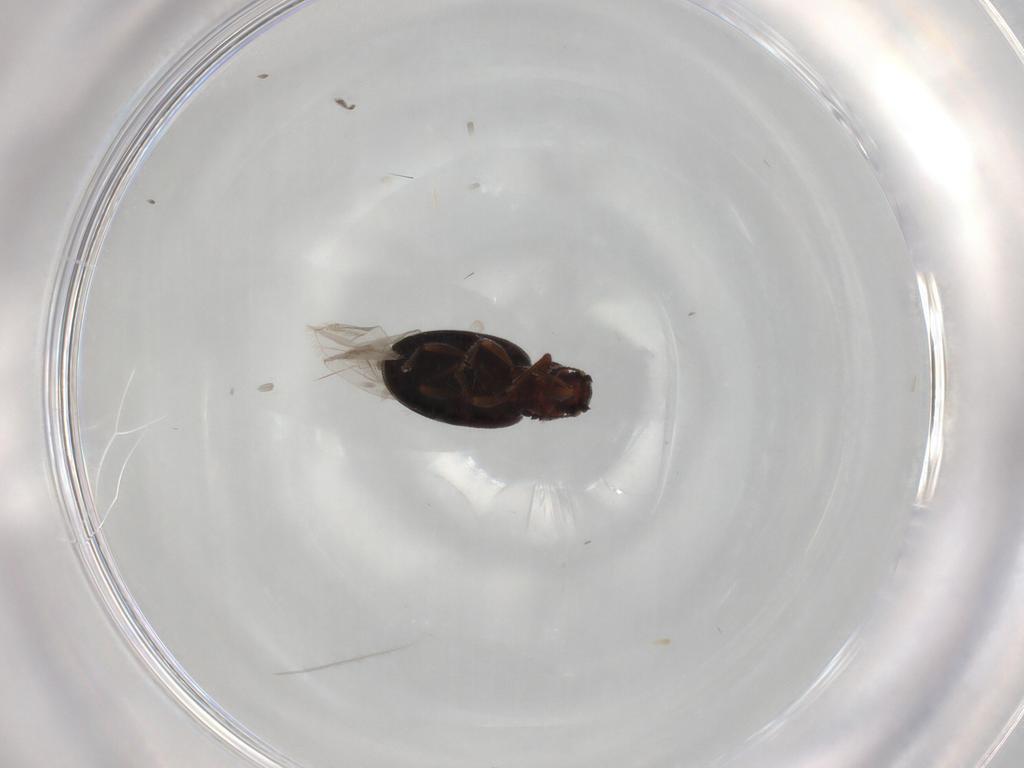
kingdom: Animalia
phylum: Arthropoda
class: Insecta
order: Coleoptera
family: Latridiidae
